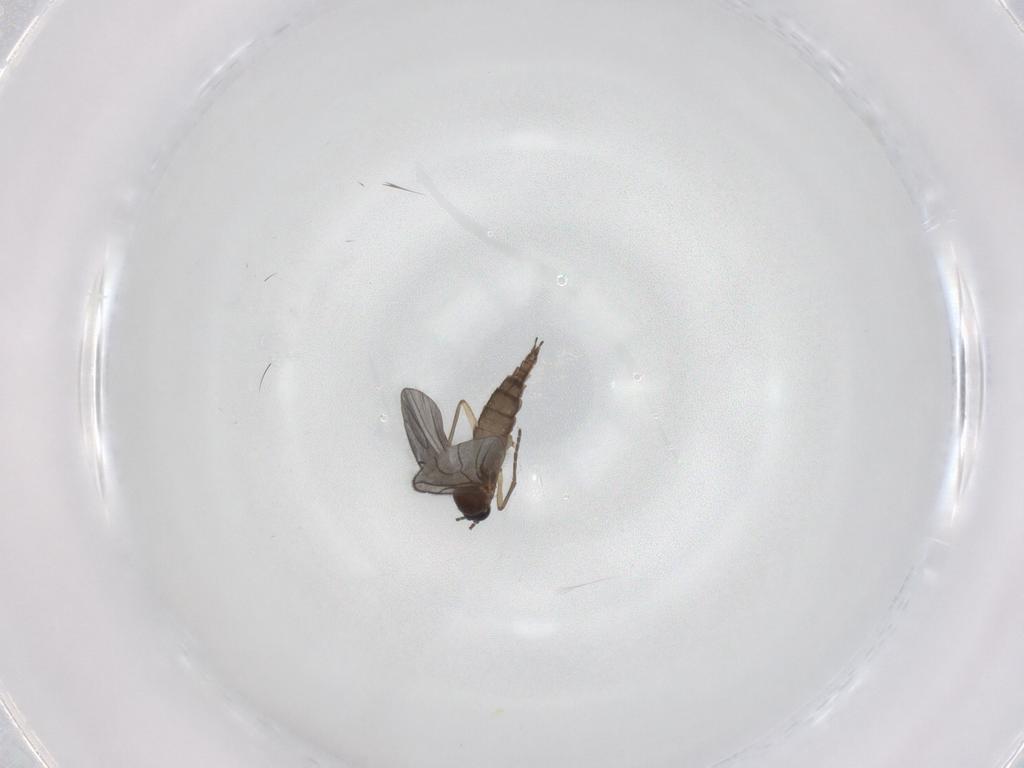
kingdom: Animalia
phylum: Arthropoda
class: Insecta
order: Diptera
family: Sciaridae
